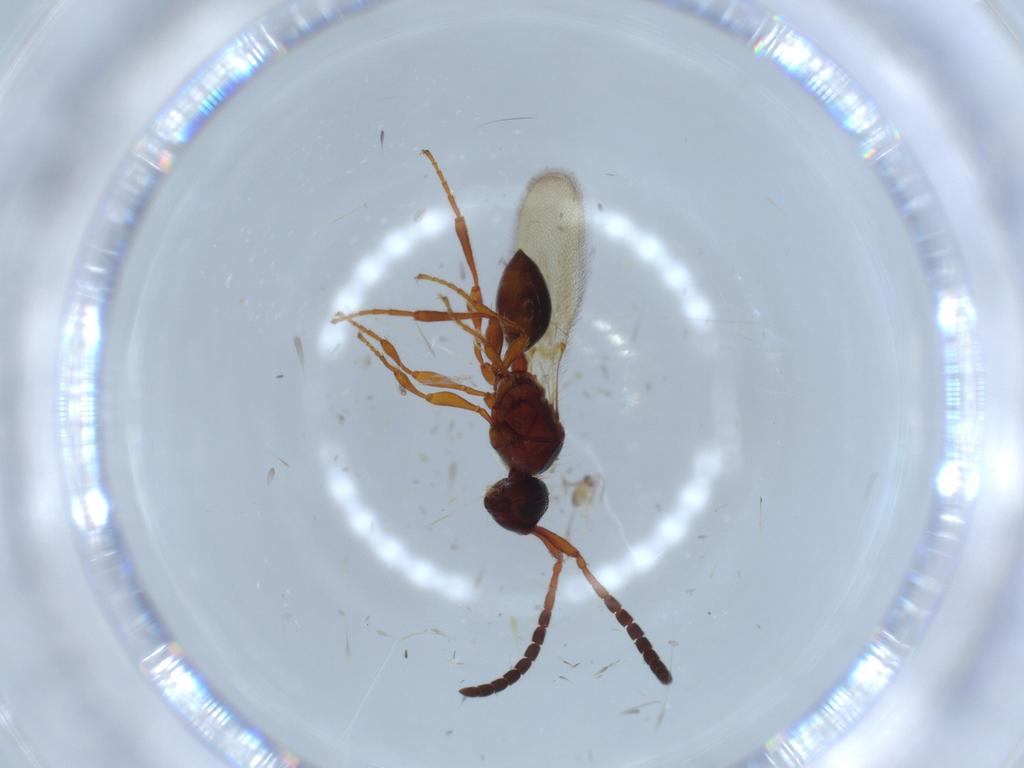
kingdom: Animalia
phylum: Arthropoda
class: Insecta
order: Hymenoptera
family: Diapriidae
